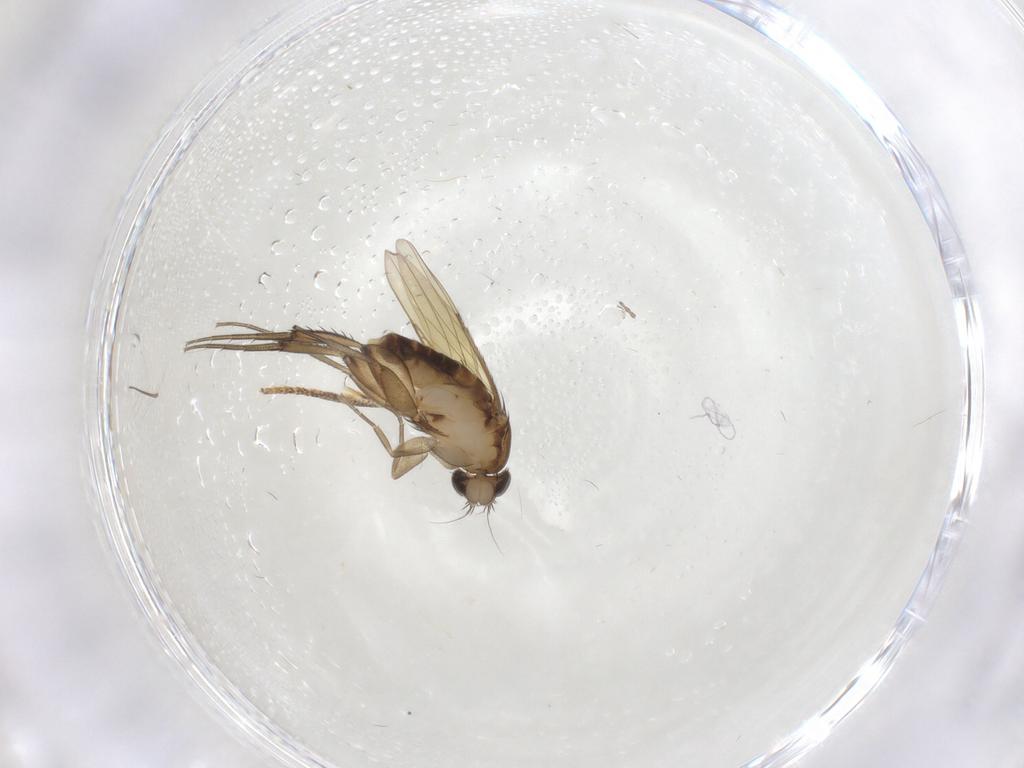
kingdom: Animalia
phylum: Arthropoda
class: Insecta
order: Diptera
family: Phoridae
